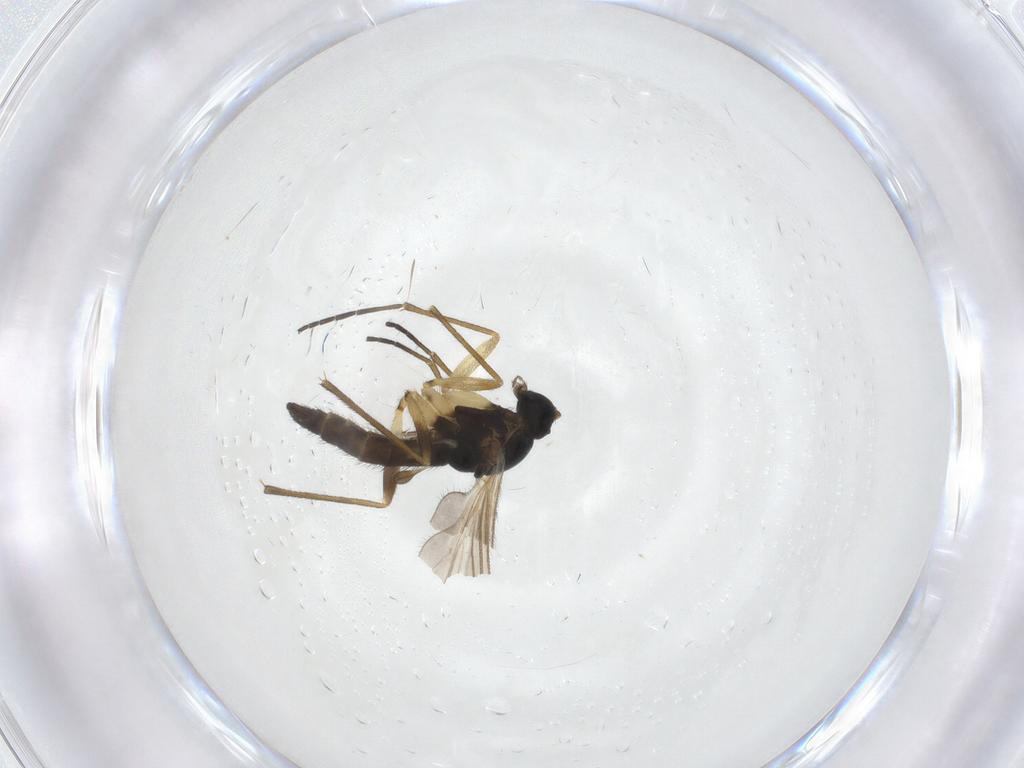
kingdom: Animalia
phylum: Arthropoda
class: Insecta
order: Diptera
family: Sciaridae
